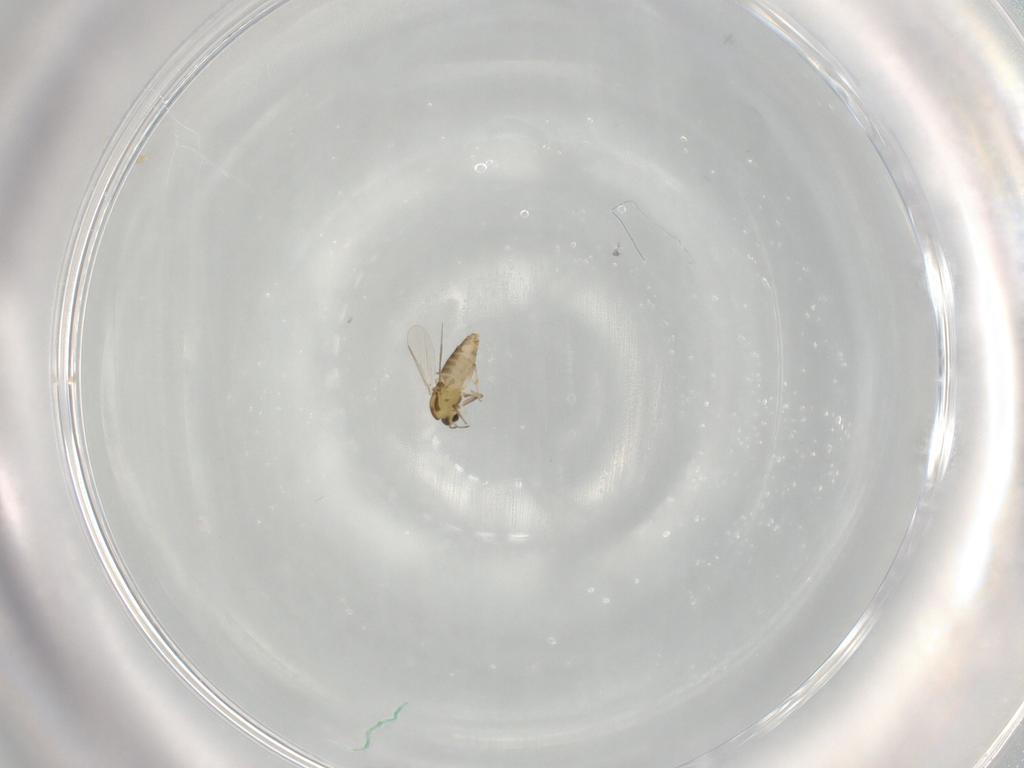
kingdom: Animalia
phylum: Arthropoda
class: Insecta
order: Diptera
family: Chironomidae
